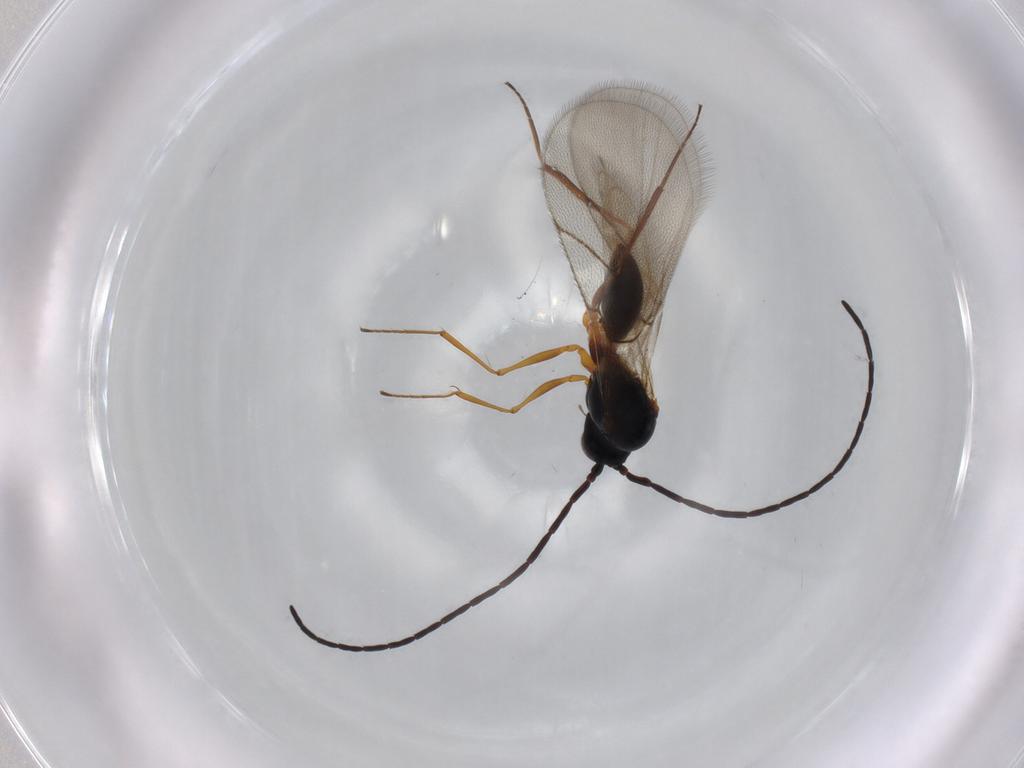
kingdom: Animalia
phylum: Arthropoda
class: Insecta
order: Hymenoptera
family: Figitidae
